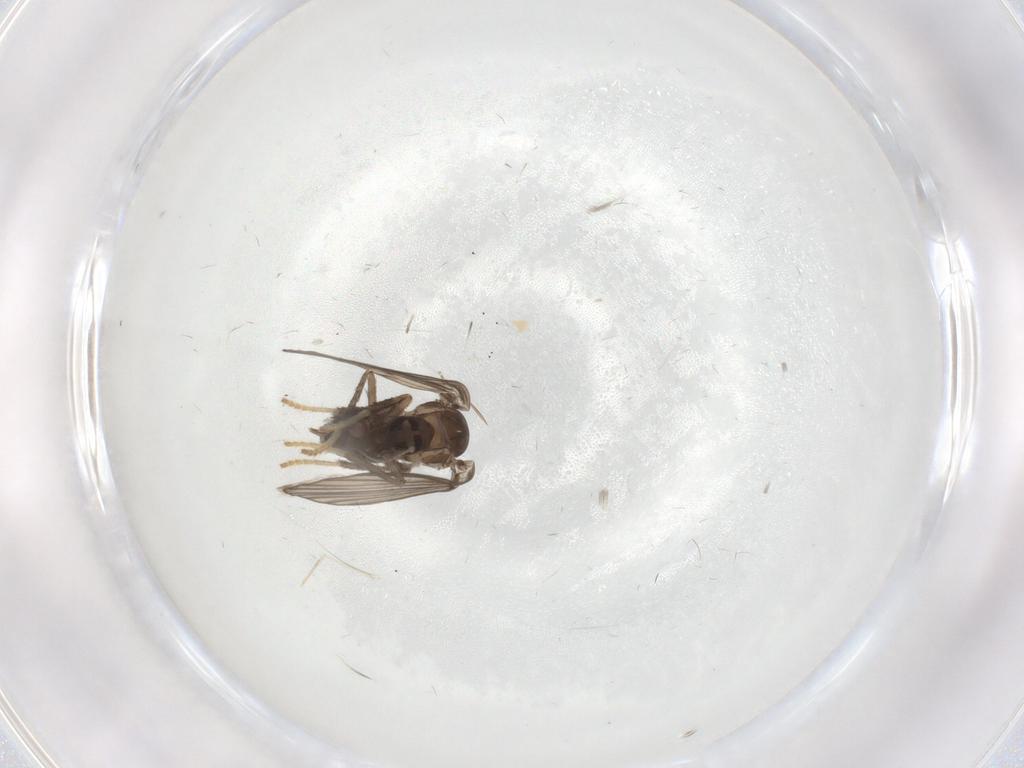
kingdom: Animalia
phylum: Arthropoda
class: Insecta
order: Diptera
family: Psychodidae
